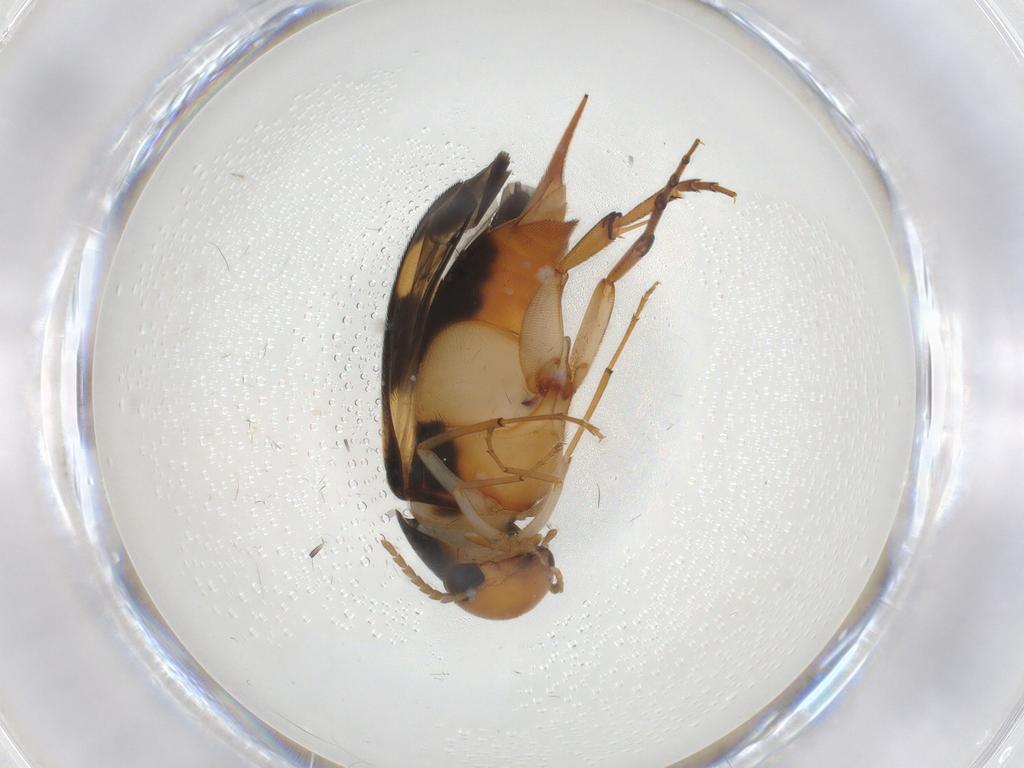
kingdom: Animalia
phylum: Arthropoda
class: Insecta
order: Coleoptera
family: Mordellidae
